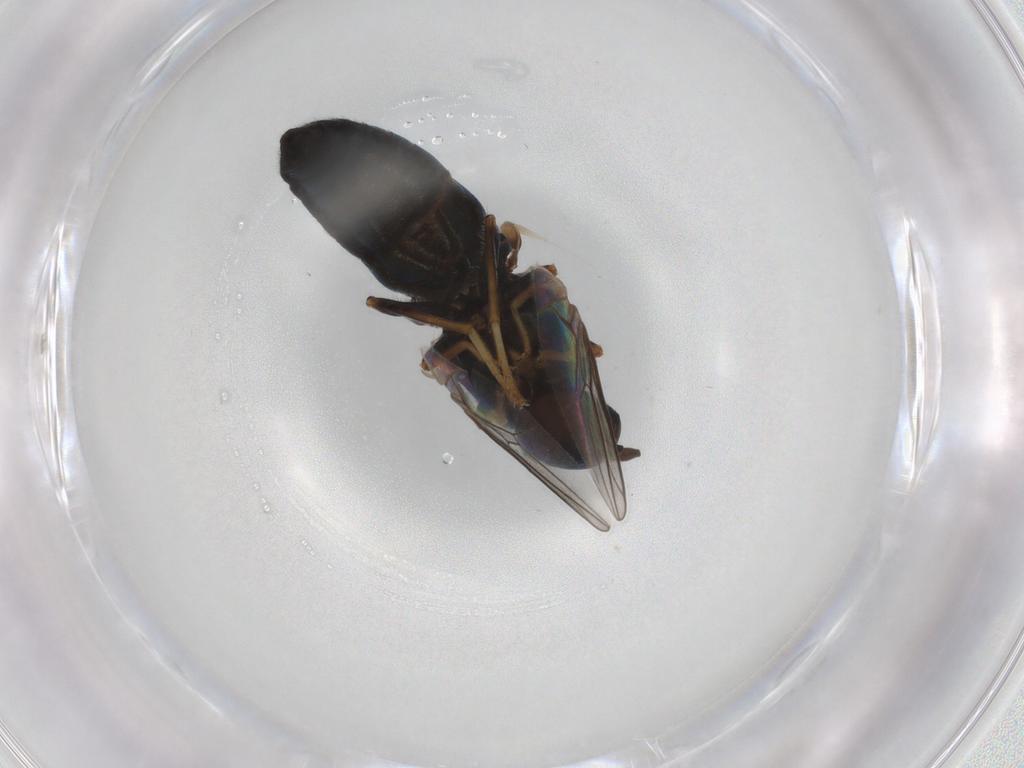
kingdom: Animalia
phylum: Arthropoda
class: Insecta
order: Diptera
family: Scenopinidae
